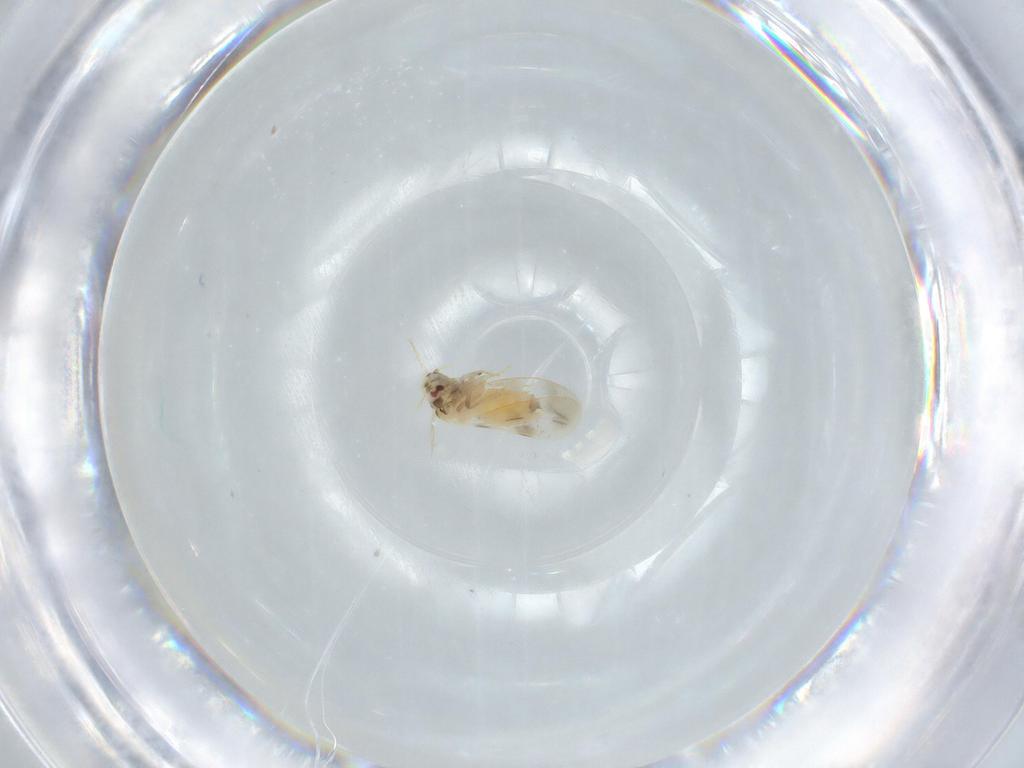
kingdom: Animalia
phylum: Arthropoda
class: Insecta
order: Hemiptera
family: Aleyrodidae
